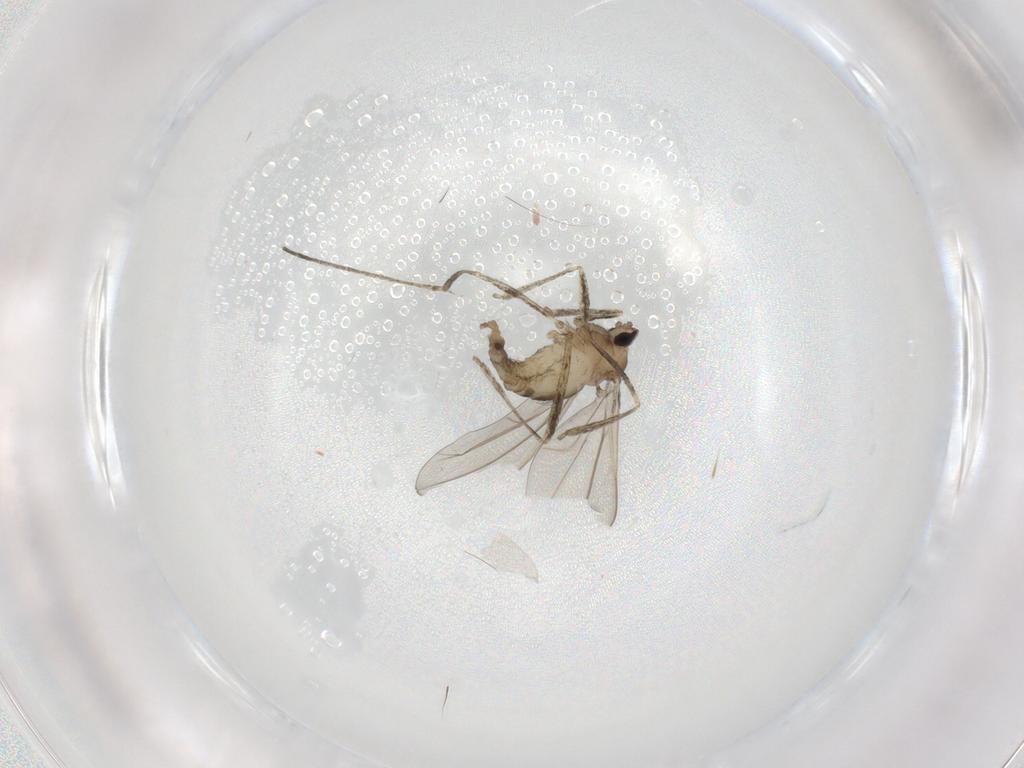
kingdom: Animalia
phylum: Arthropoda
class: Insecta
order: Diptera
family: Cecidomyiidae
